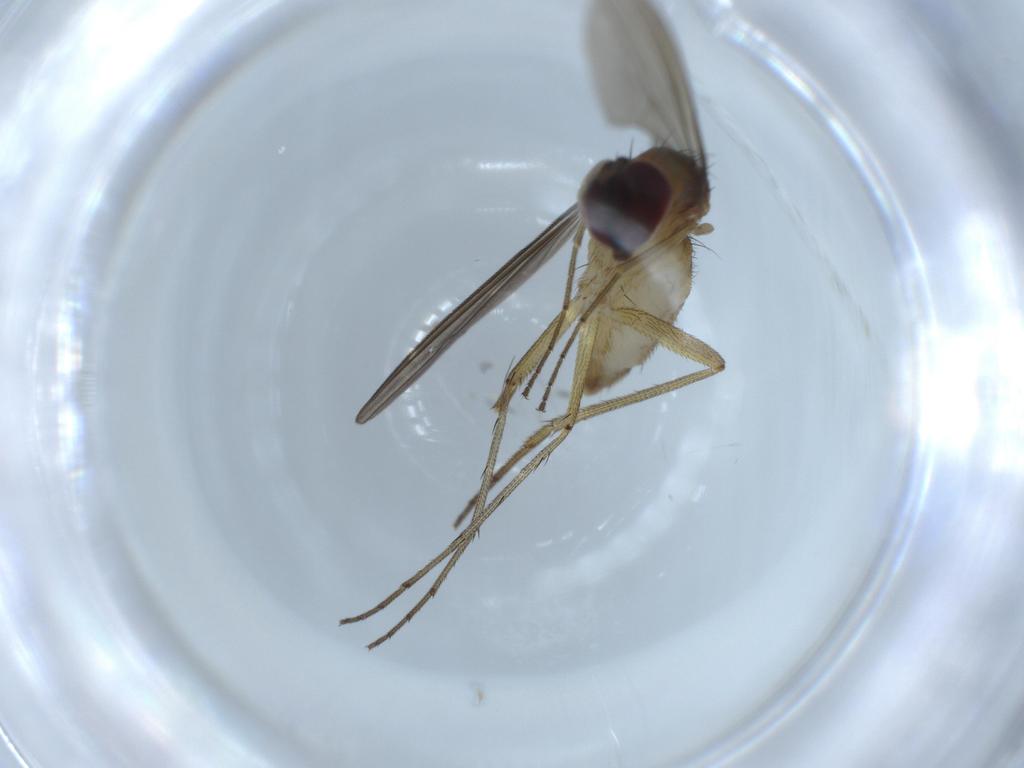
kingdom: Animalia
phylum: Arthropoda
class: Insecta
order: Diptera
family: Dolichopodidae
